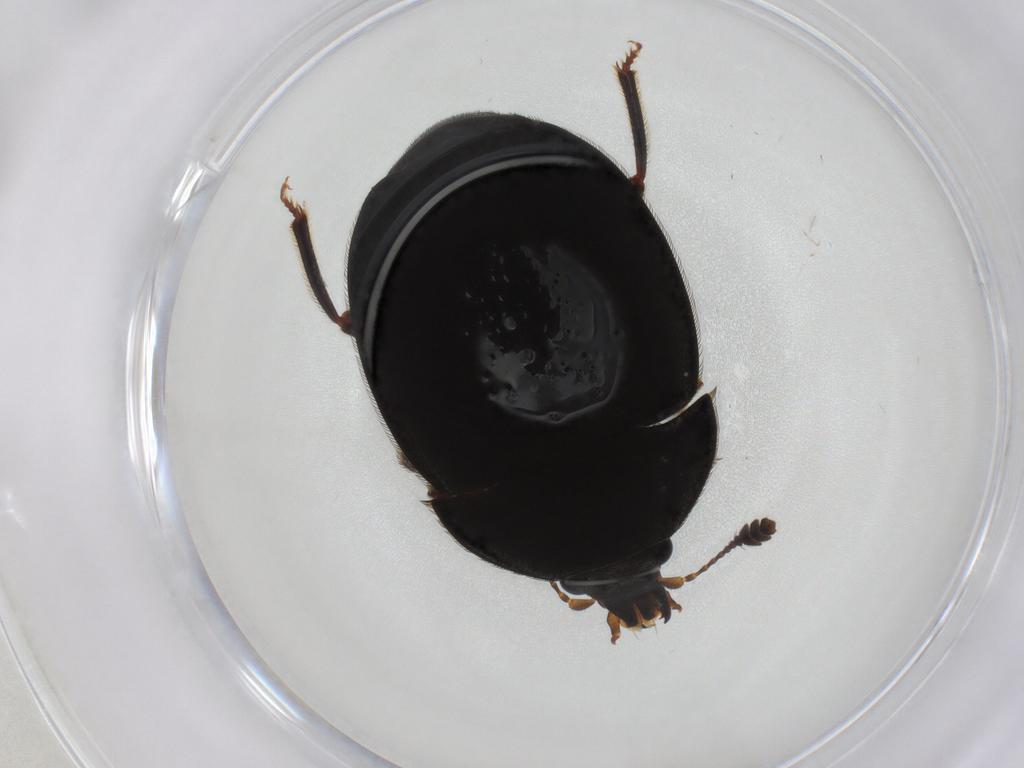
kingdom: Animalia
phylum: Arthropoda
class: Insecta
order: Coleoptera
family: Eucnemidae
